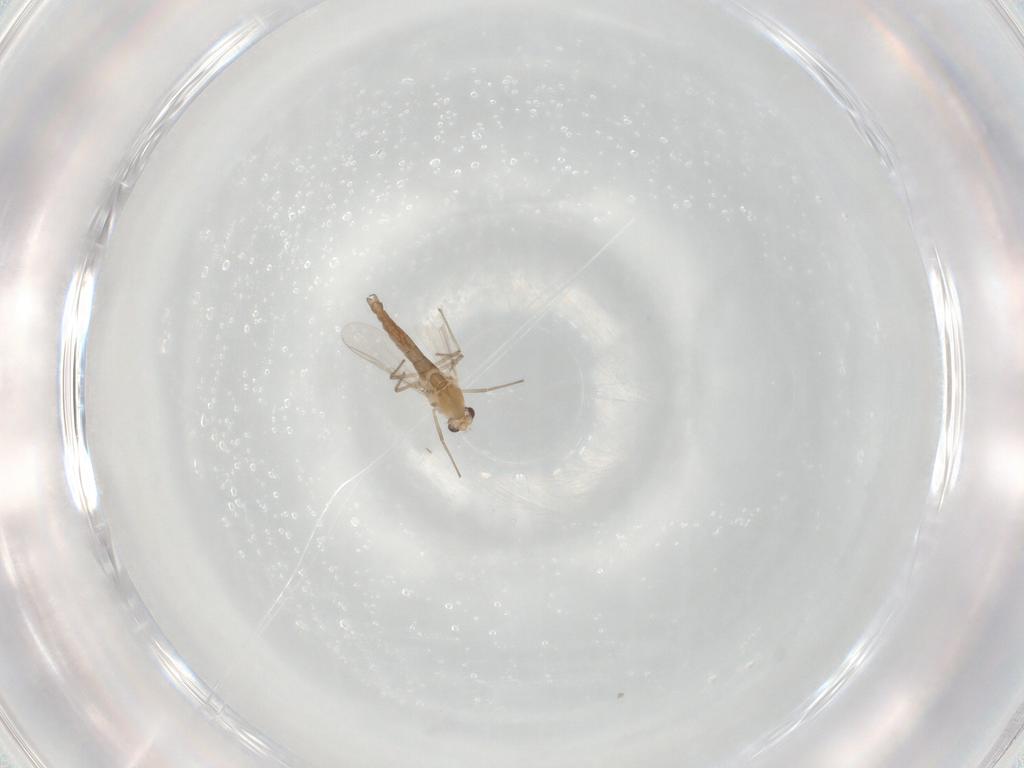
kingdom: Animalia
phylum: Arthropoda
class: Insecta
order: Diptera
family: Chironomidae
